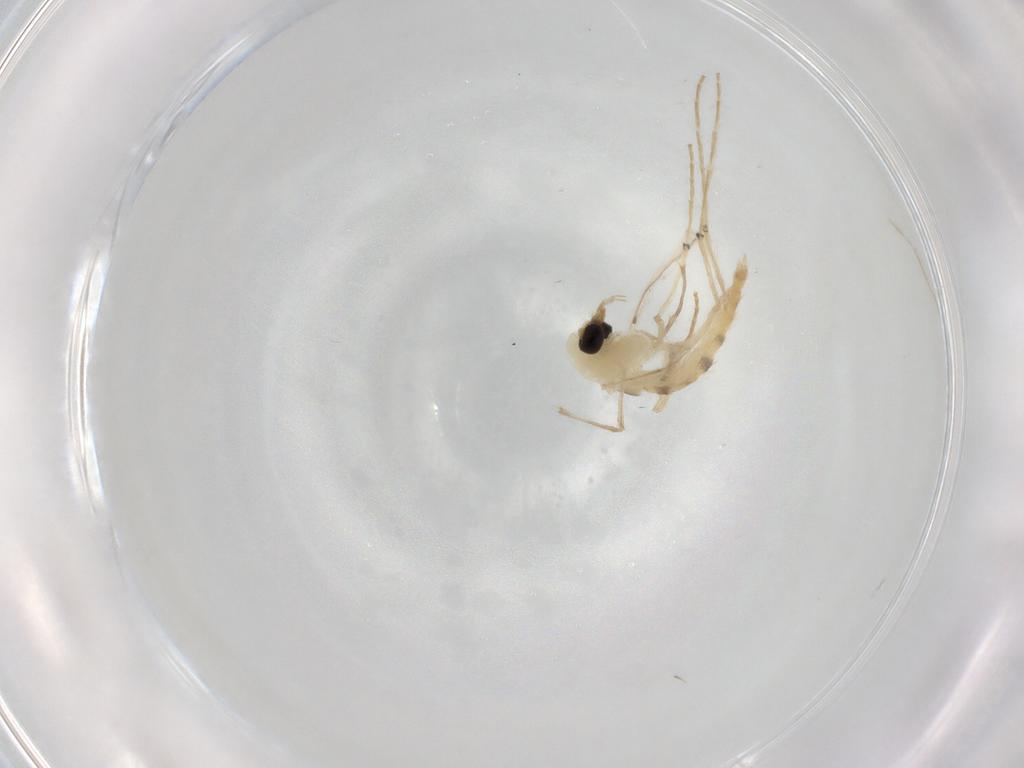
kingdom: Animalia
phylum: Arthropoda
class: Insecta
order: Diptera
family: Chironomidae
